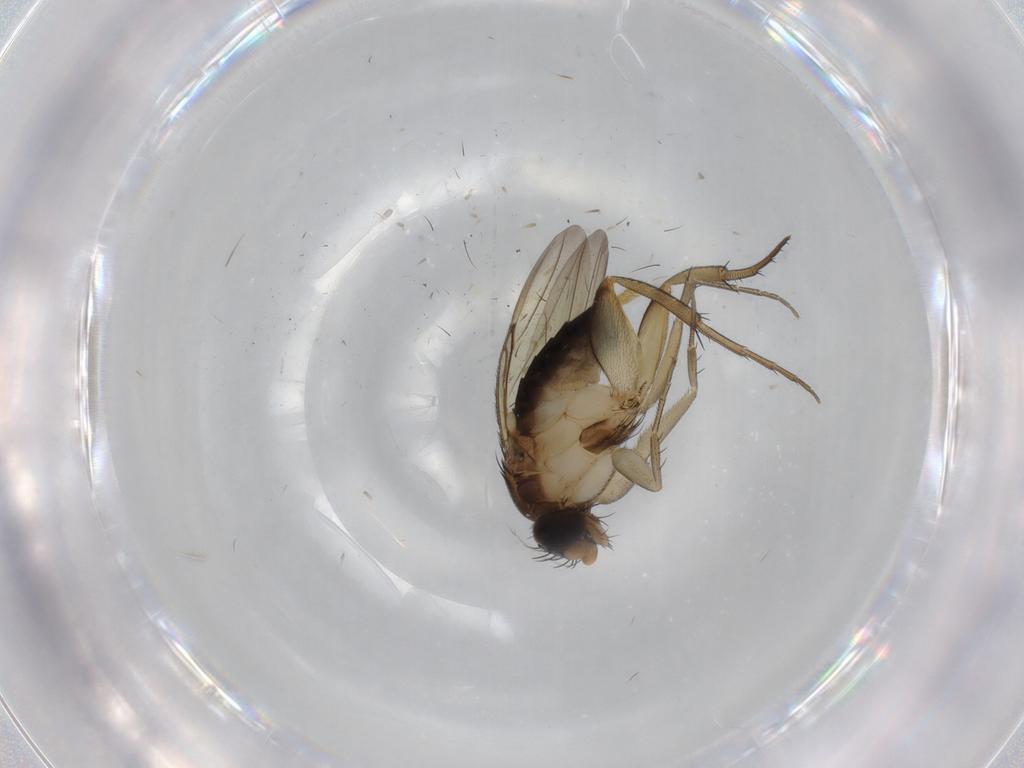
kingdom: Animalia
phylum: Arthropoda
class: Insecta
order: Diptera
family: Phoridae
